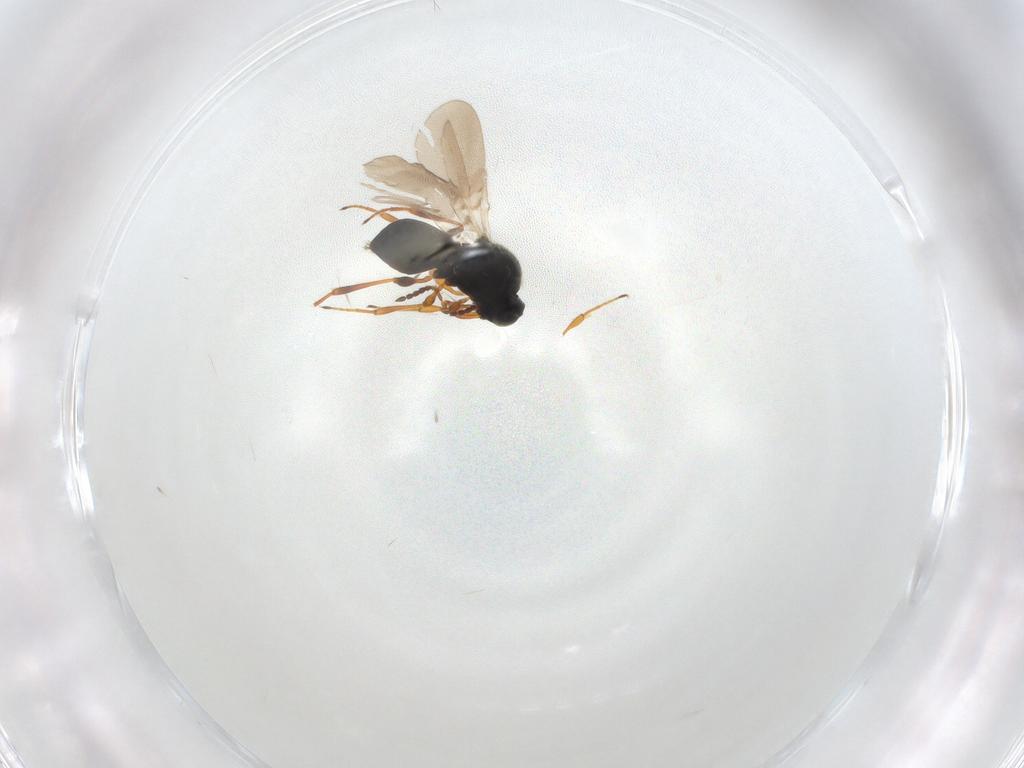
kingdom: Animalia
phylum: Arthropoda
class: Insecta
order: Hymenoptera
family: Platygastridae
